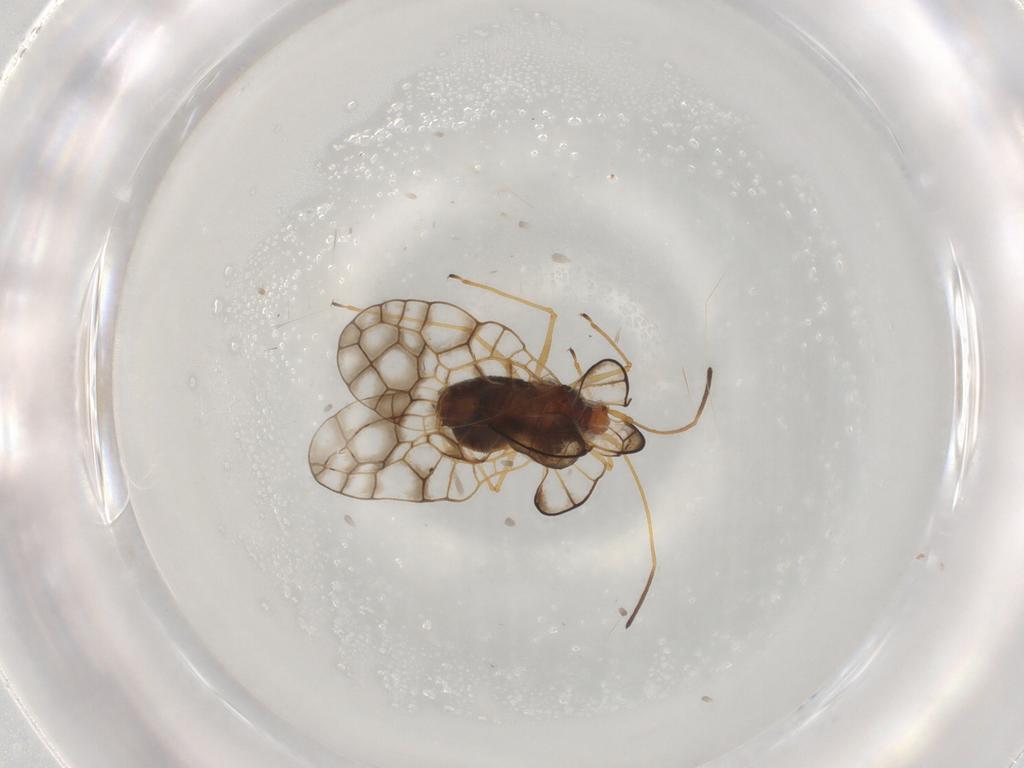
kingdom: Animalia
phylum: Arthropoda
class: Insecta
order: Hemiptera
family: Tingidae
